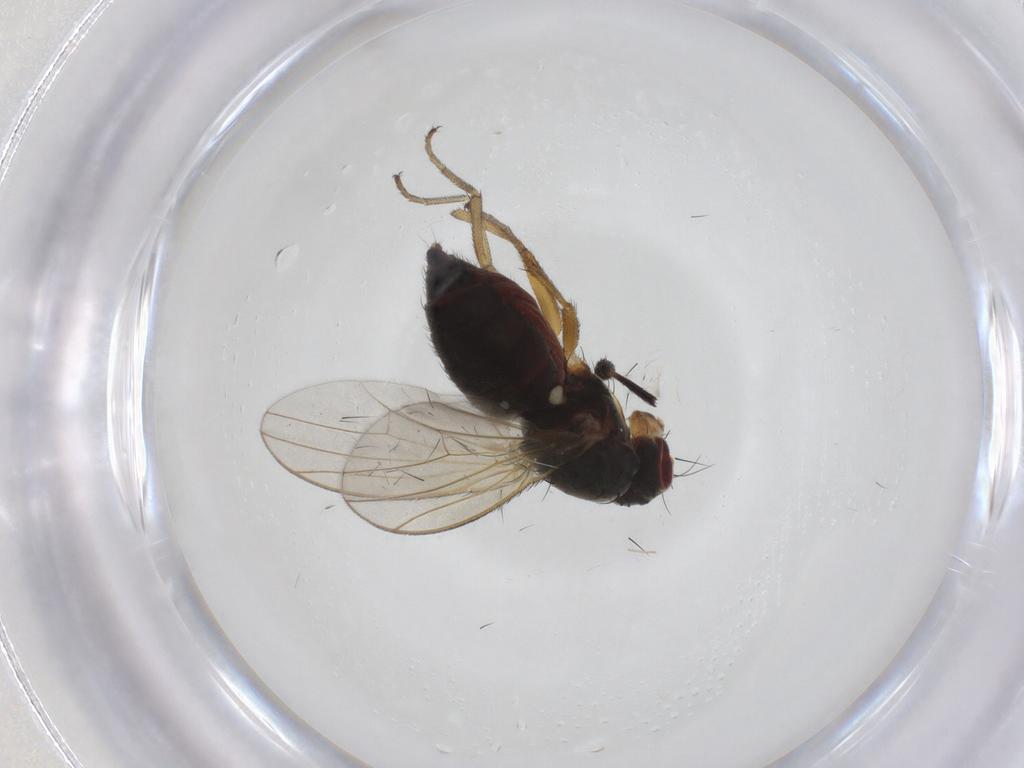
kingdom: Animalia
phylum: Arthropoda
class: Insecta
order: Diptera
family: Heleomyzidae
